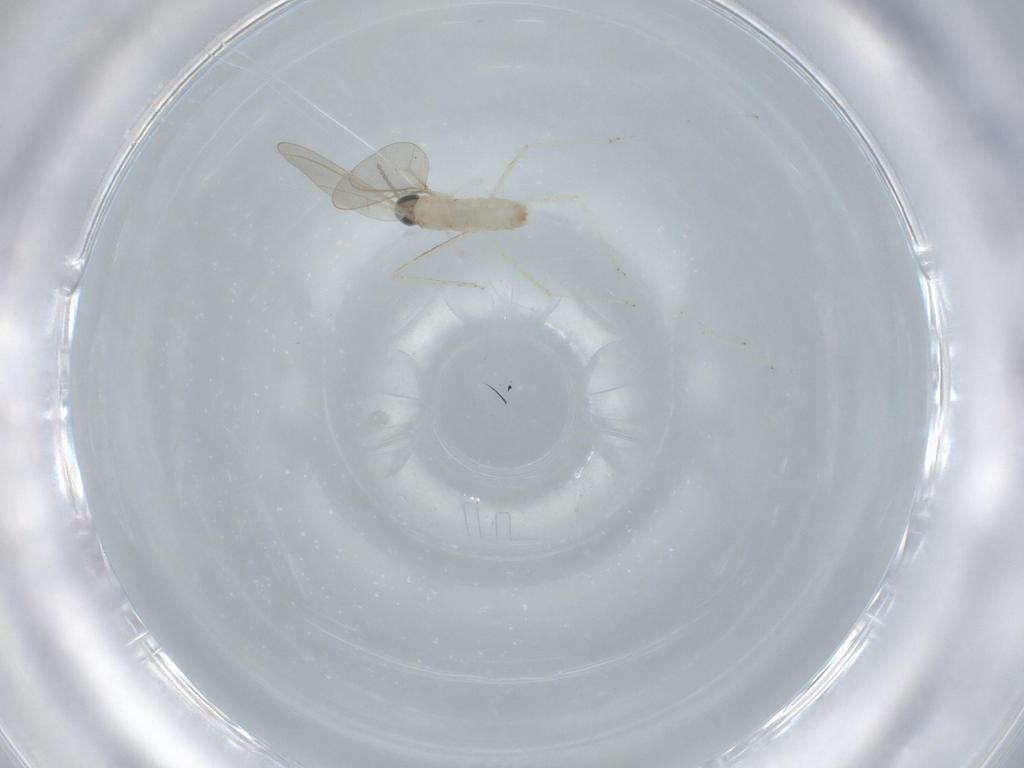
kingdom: Animalia
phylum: Arthropoda
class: Insecta
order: Diptera
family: Cecidomyiidae
